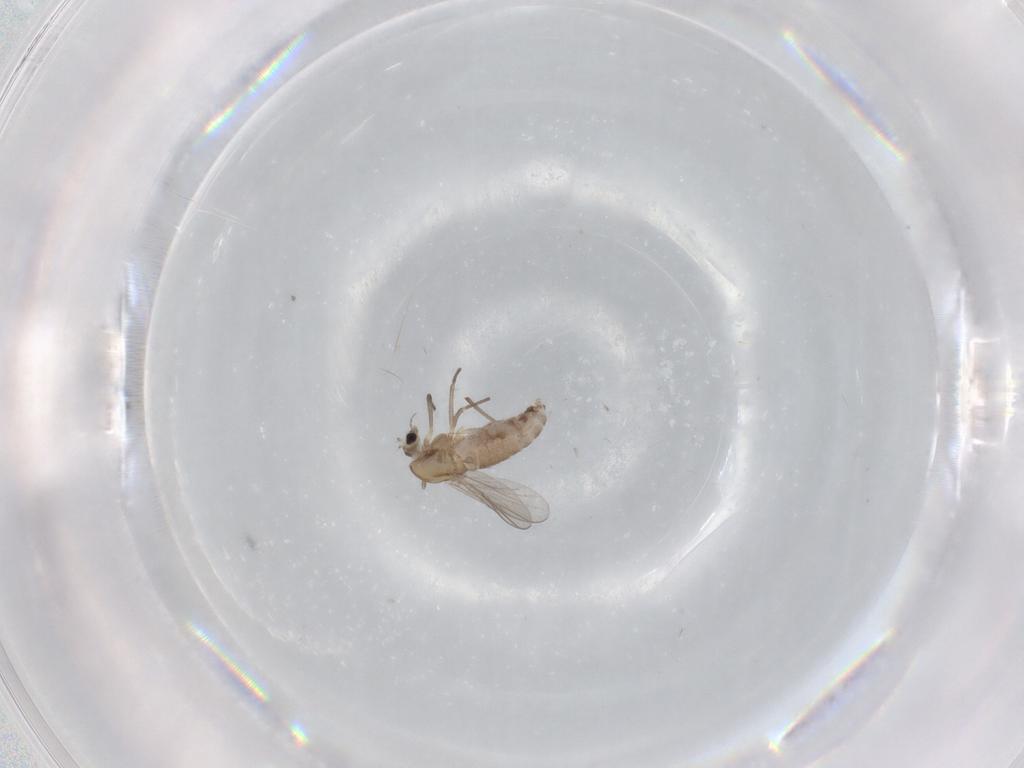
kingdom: Animalia
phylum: Arthropoda
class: Insecta
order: Diptera
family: Chironomidae
